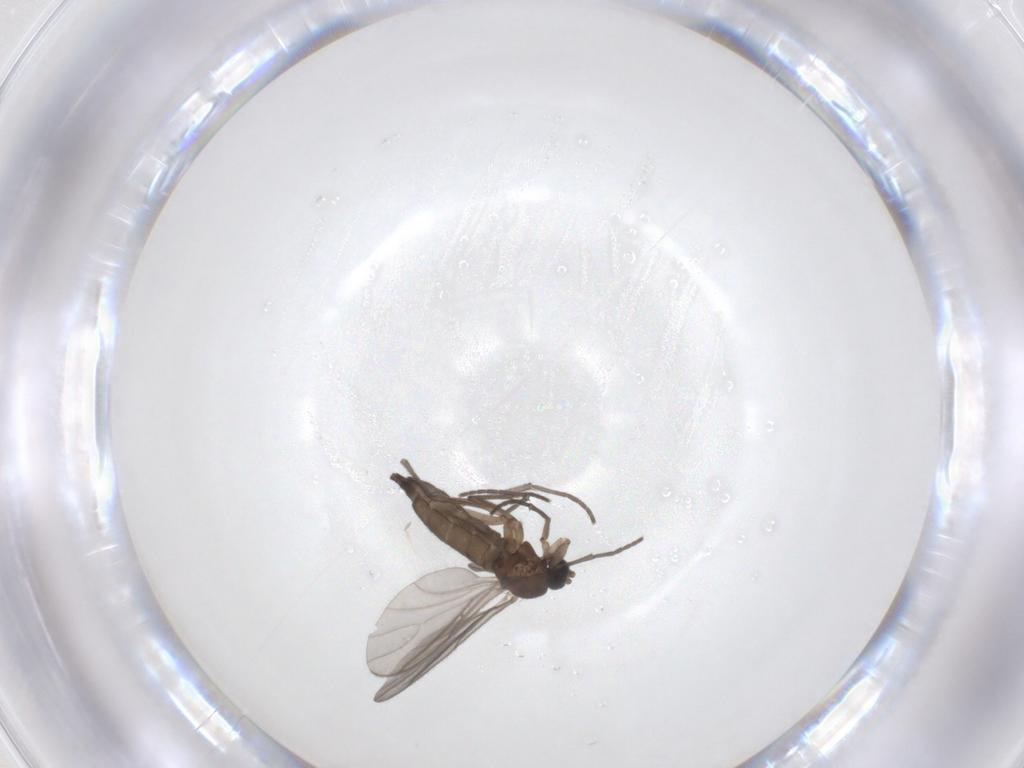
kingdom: Animalia
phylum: Arthropoda
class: Insecta
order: Diptera
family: Sciaridae
